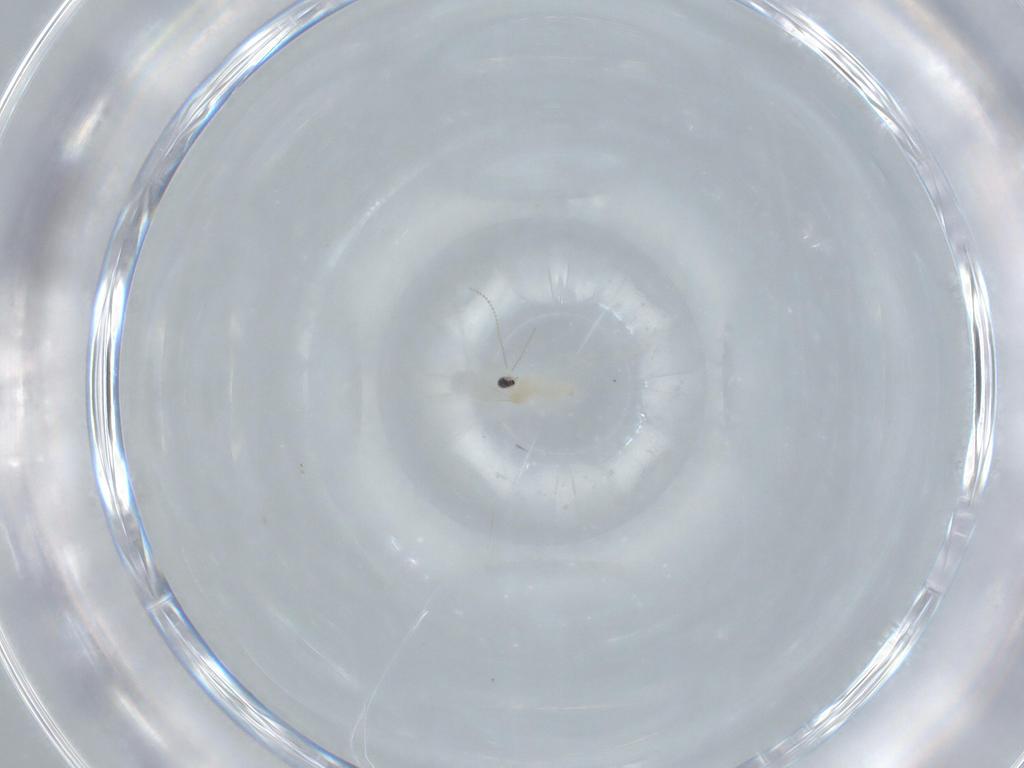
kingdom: Animalia
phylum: Arthropoda
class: Insecta
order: Diptera
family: Cecidomyiidae
